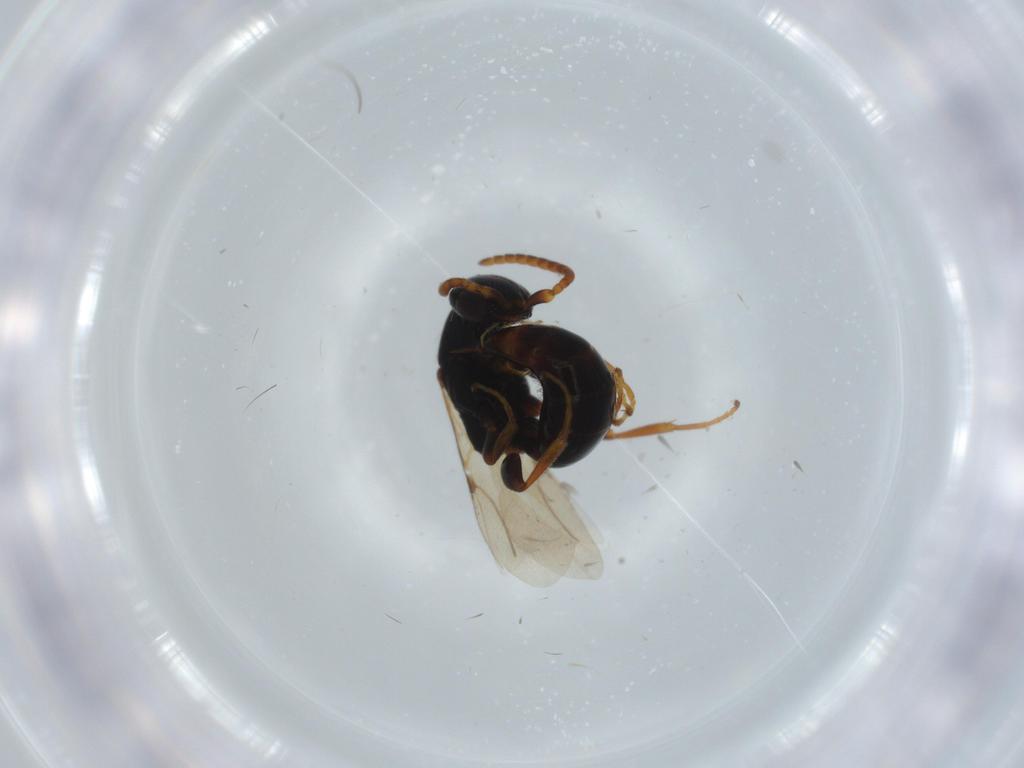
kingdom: Animalia
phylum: Arthropoda
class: Insecta
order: Hymenoptera
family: Bethylidae
